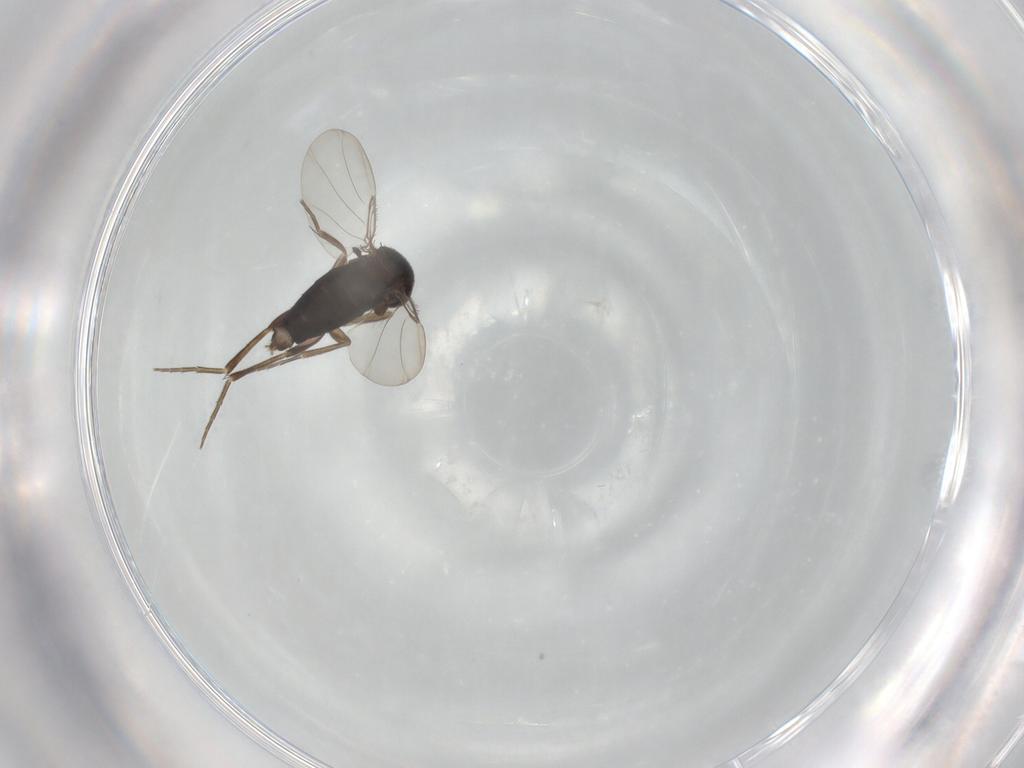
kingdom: Animalia
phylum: Arthropoda
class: Insecta
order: Diptera
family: Phoridae
